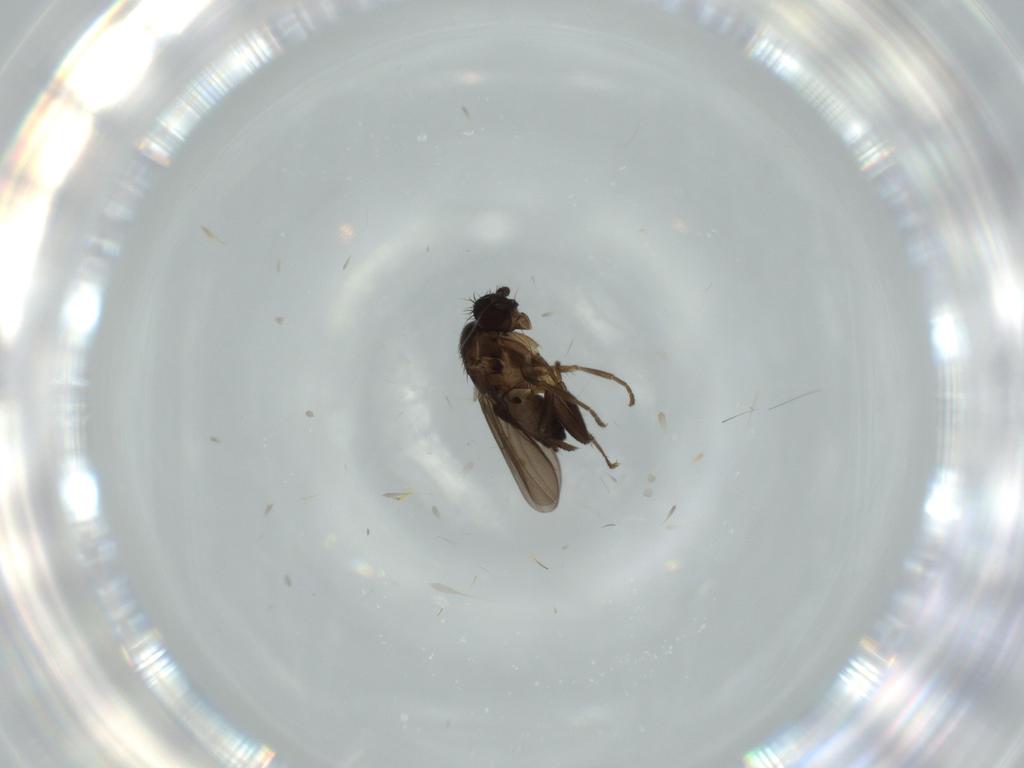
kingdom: Animalia
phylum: Arthropoda
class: Insecta
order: Diptera
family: Sphaeroceridae
